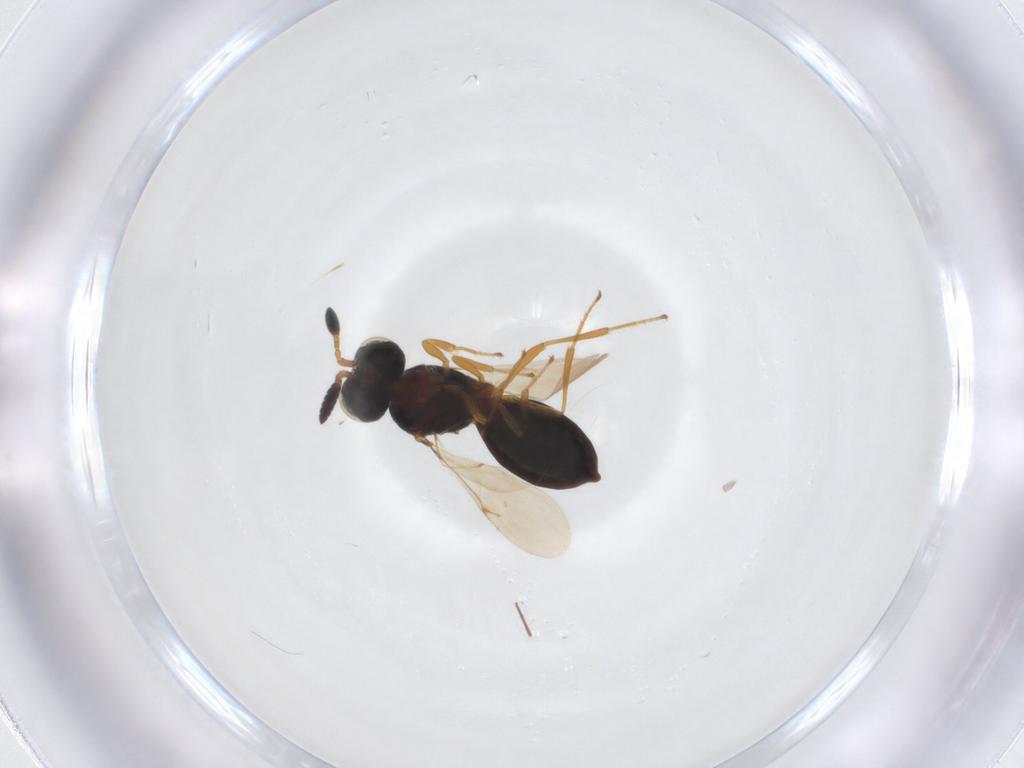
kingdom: Animalia
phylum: Arthropoda
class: Insecta
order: Hymenoptera
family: Scelionidae
